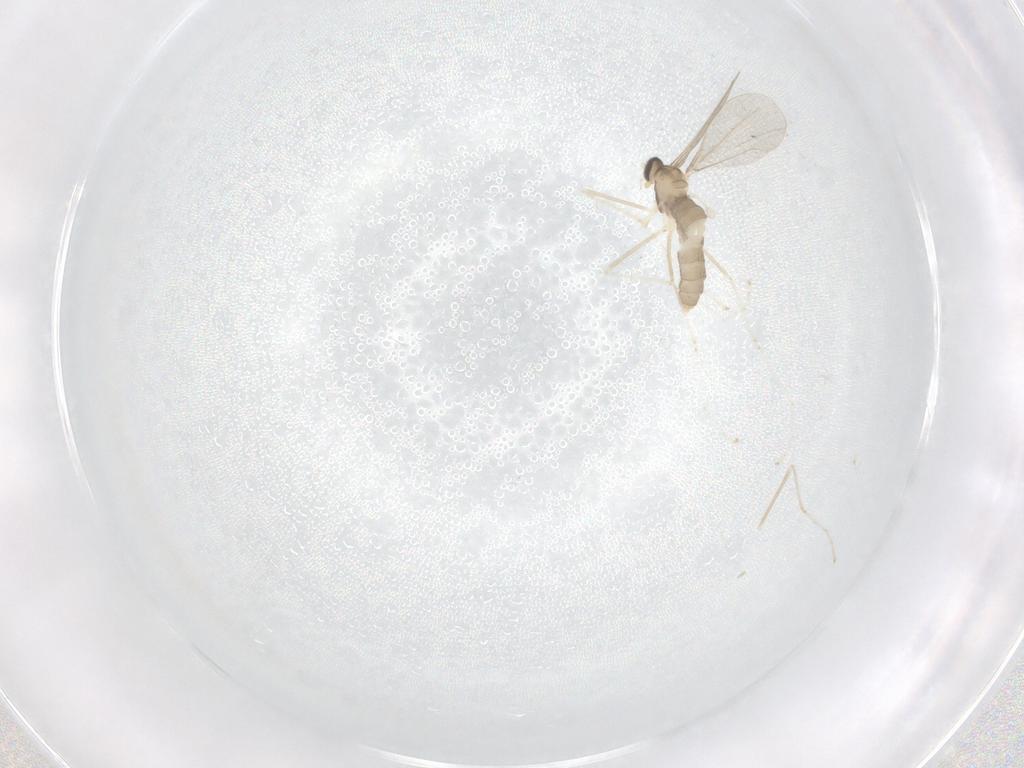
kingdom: Animalia
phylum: Arthropoda
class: Insecta
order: Diptera
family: Cecidomyiidae
